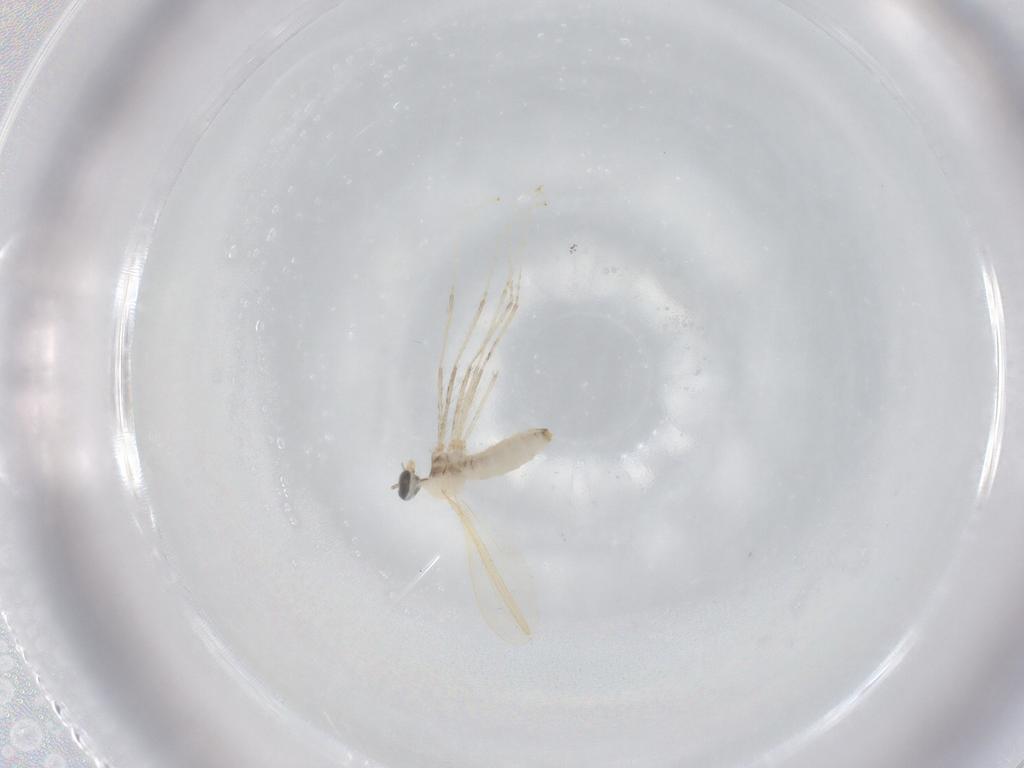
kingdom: Animalia
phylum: Arthropoda
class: Insecta
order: Diptera
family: Cecidomyiidae
